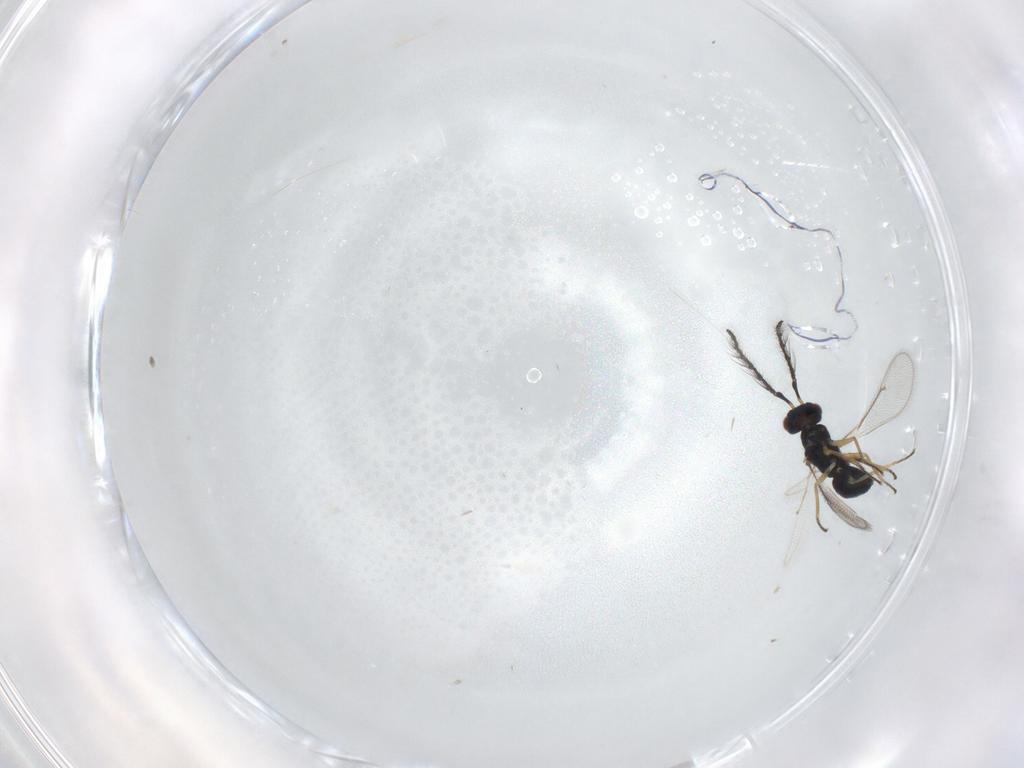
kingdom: Animalia
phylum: Arthropoda
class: Insecta
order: Hymenoptera
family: Eulophidae
